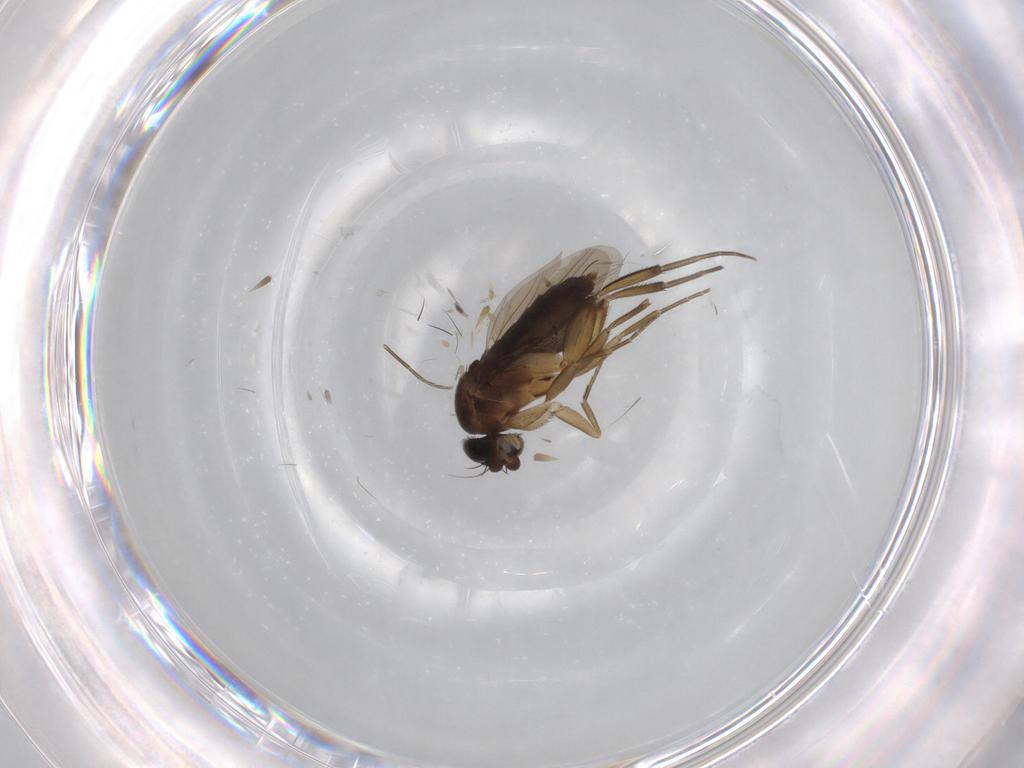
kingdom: Animalia
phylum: Arthropoda
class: Insecta
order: Diptera
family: Phoridae
